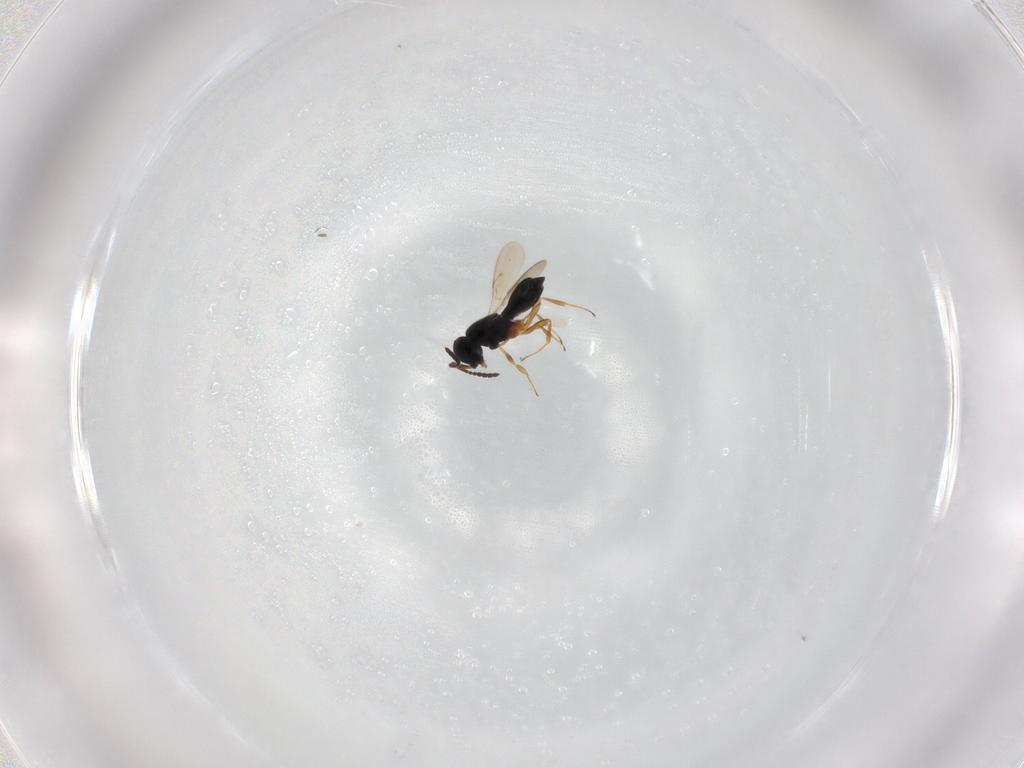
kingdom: Animalia
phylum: Arthropoda
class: Insecta
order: Hymenoptera
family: Scelionidae
